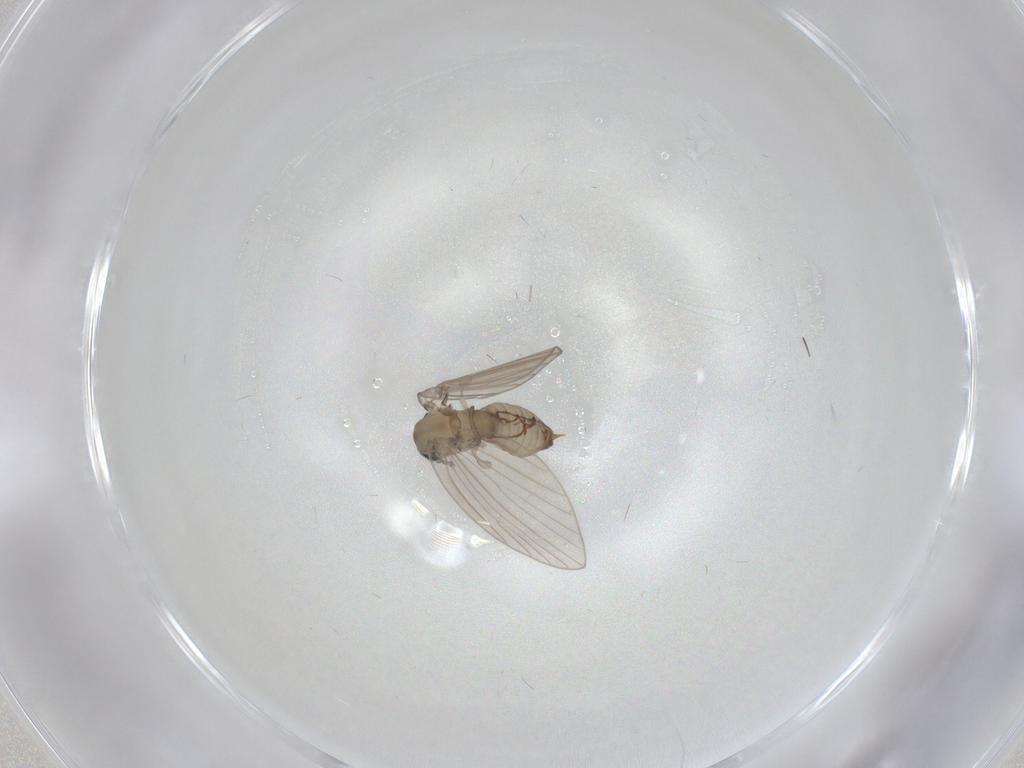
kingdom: Animalia
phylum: Arthropoda
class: Insecta
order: Diptera
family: Psychodidae
